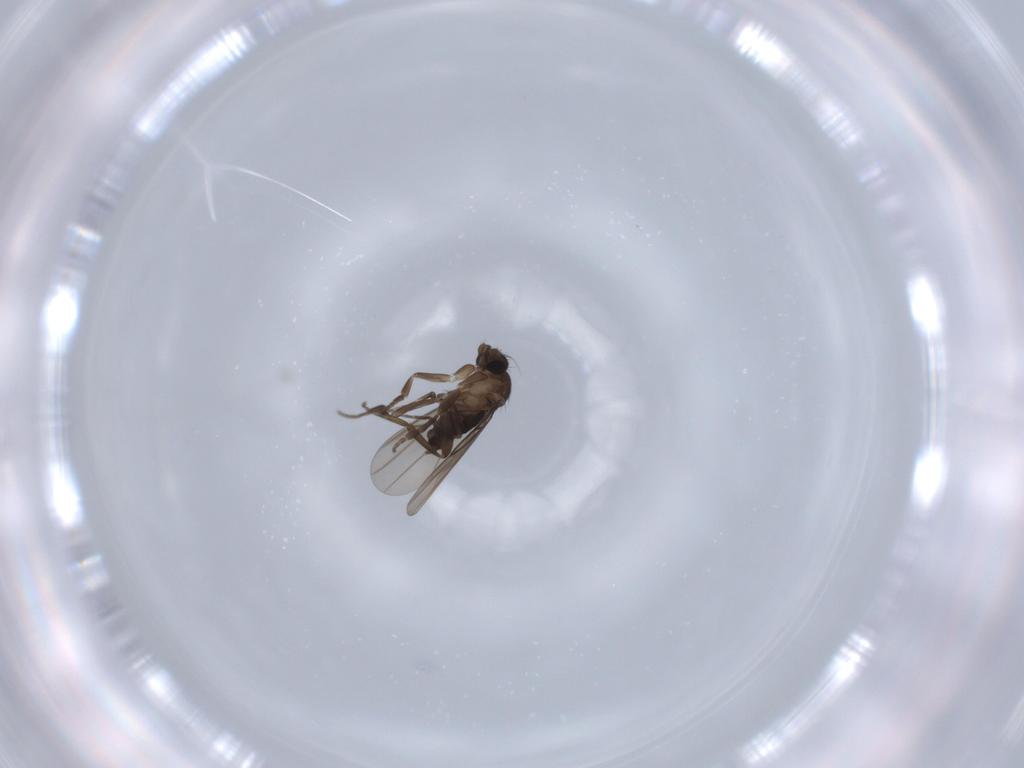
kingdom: Animalia
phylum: Arthropoda
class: Insecta
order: Diptera
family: Phoridae
